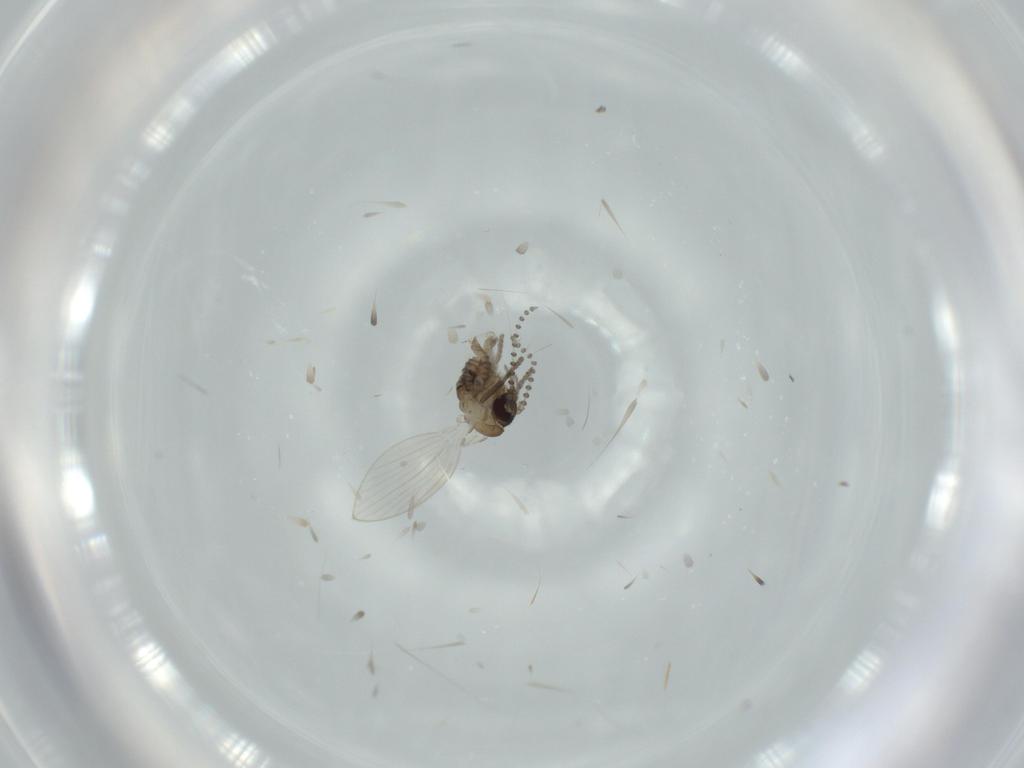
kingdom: Animalia
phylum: Arthropoda
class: Insecta
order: Diptera
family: Psychodidae
